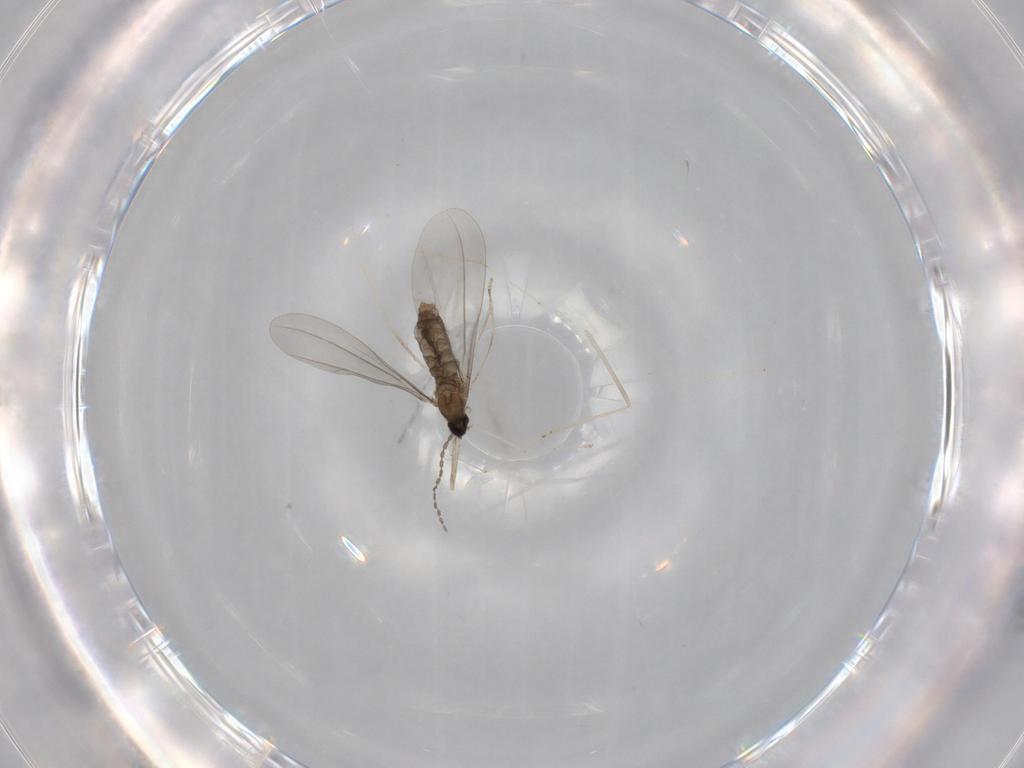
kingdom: Animalia
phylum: Arthropoda
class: Insecta
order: Diptera
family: Cecidomyiidae
